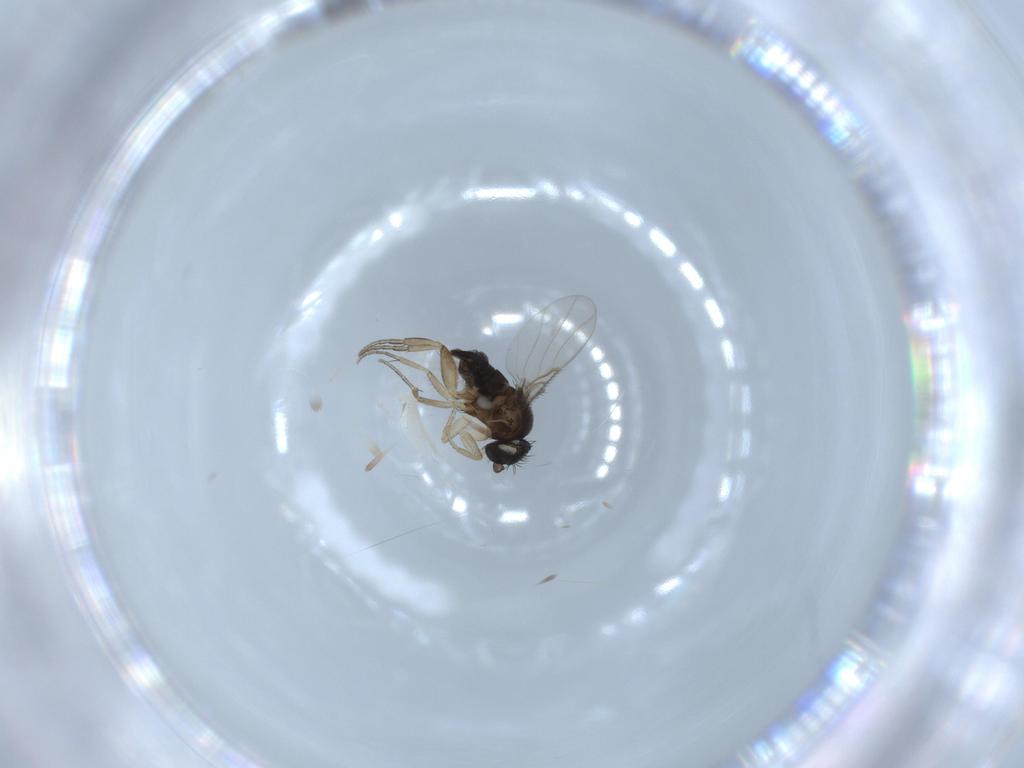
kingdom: Animalia
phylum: Arthropoda
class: Insecta
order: Diptera
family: Phoridae
